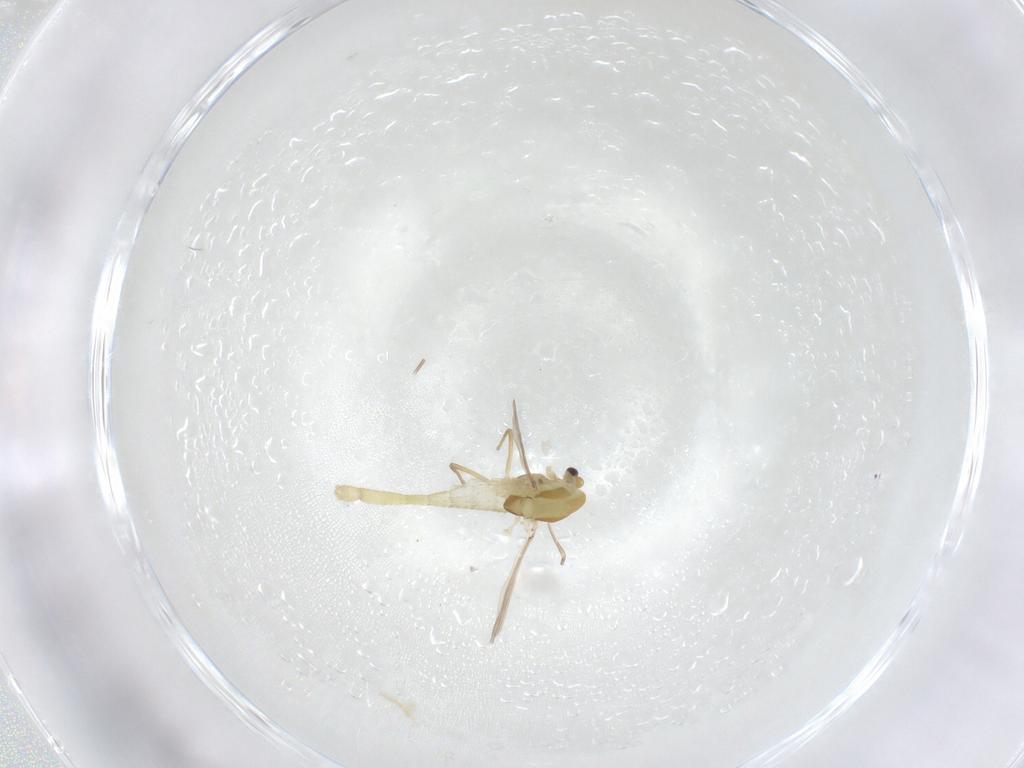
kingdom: Animalia
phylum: Arthropoda
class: Insecta
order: Diptera
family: Chironomidae
